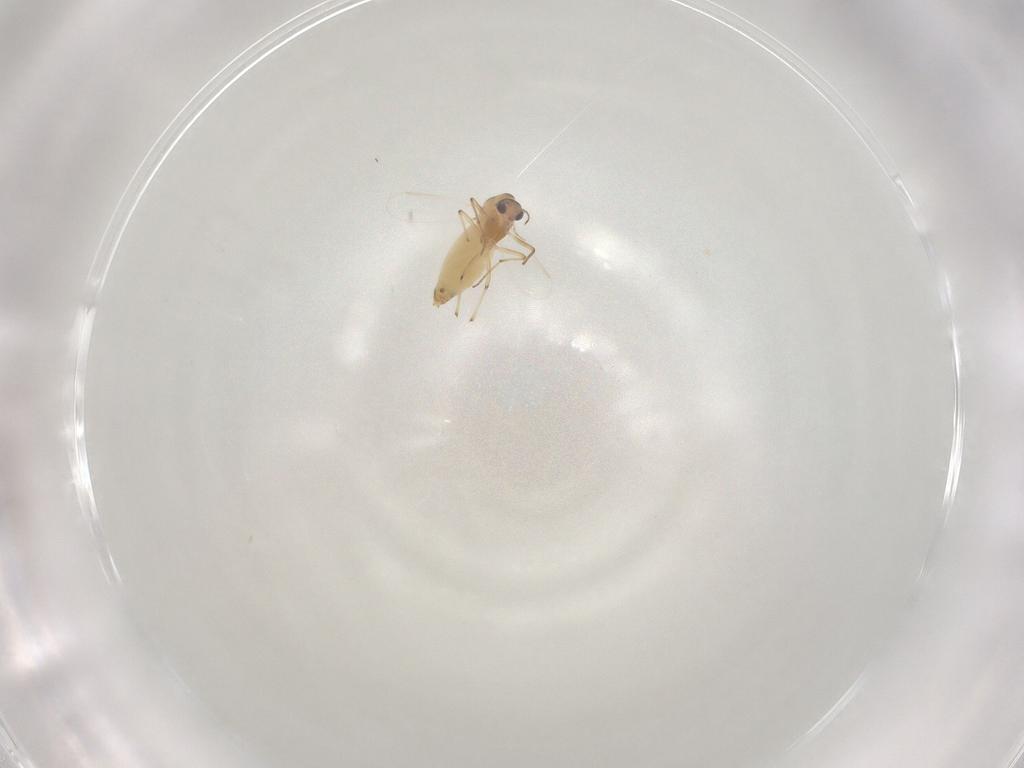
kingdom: Animalia
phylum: Arthropoda
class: Insecta
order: Diptera
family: Chironomidae
